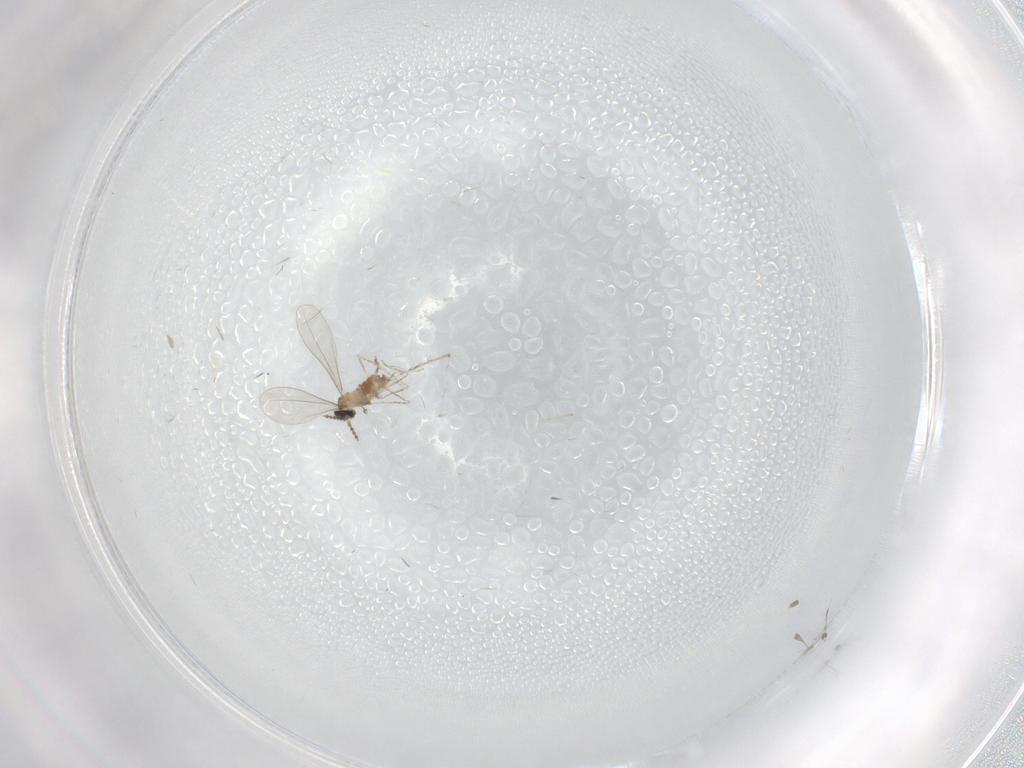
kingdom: Animalia
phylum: Arthropoda
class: Insecta
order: Diptera
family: Cecidomyiidae
